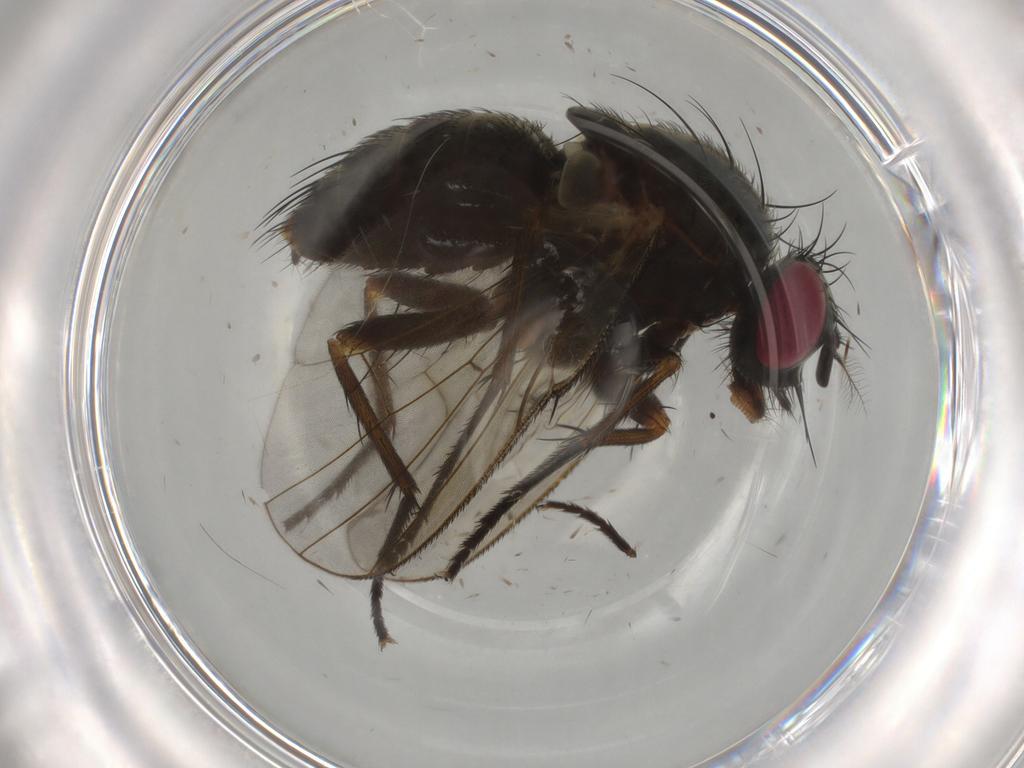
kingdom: Animalia
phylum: Arthropoda
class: Insecta
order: Diptera
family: Muscidae
